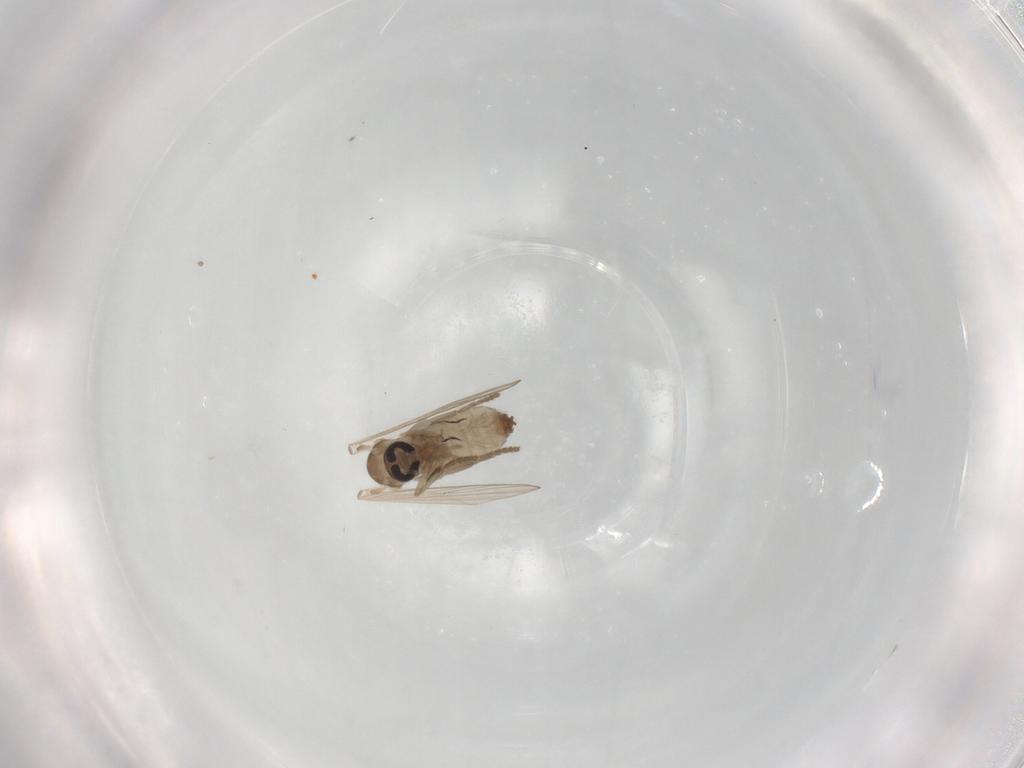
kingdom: Animalia
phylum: Arthropoda
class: Insecta
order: Diptera
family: Psychodidae
